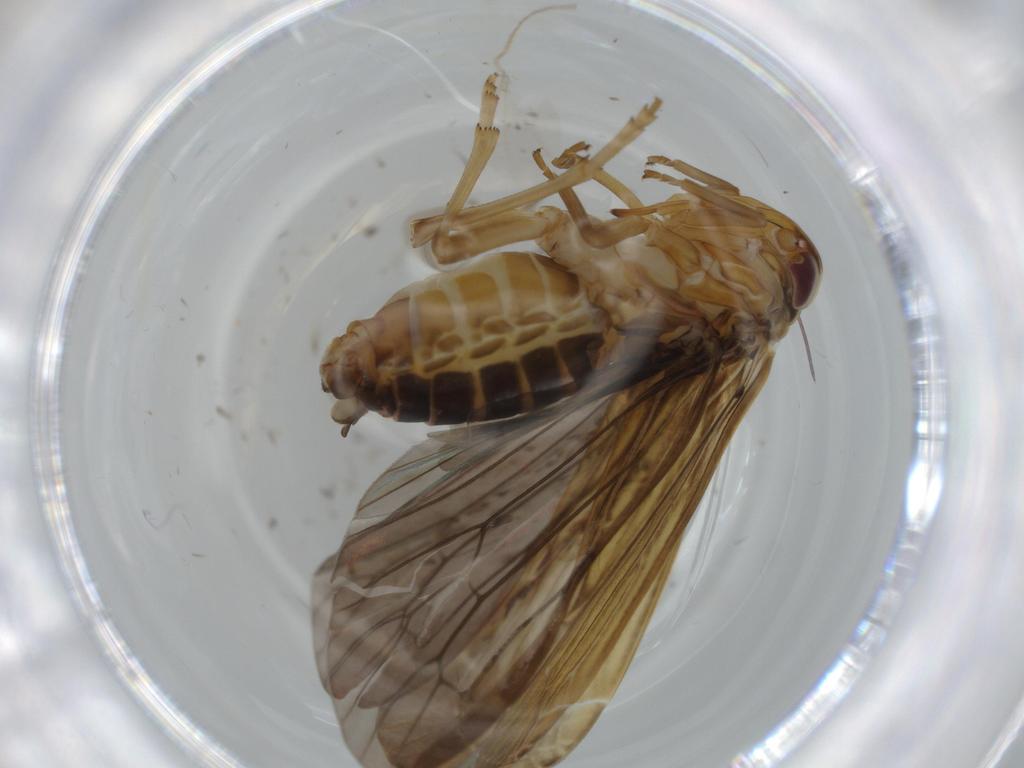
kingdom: Animalia
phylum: Arthropoda
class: Insecta
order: Hemiptera
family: Achilidae
